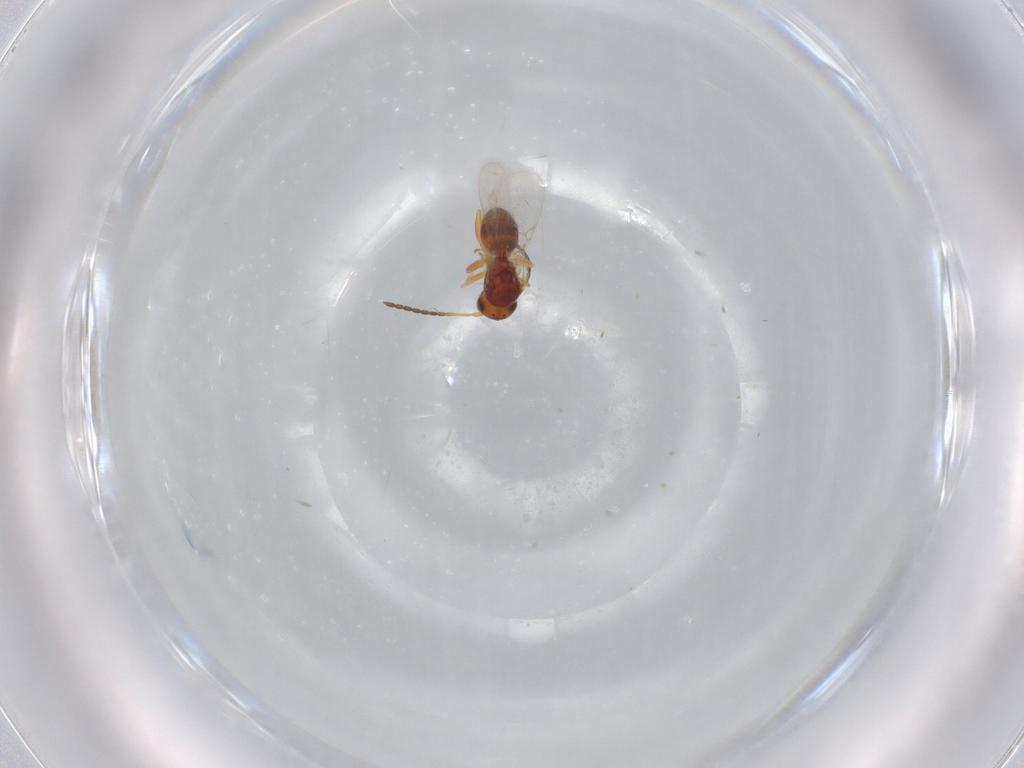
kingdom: Animalia
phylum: Arthropoda
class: Insecta
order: Hymenoptera
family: Figitidae
